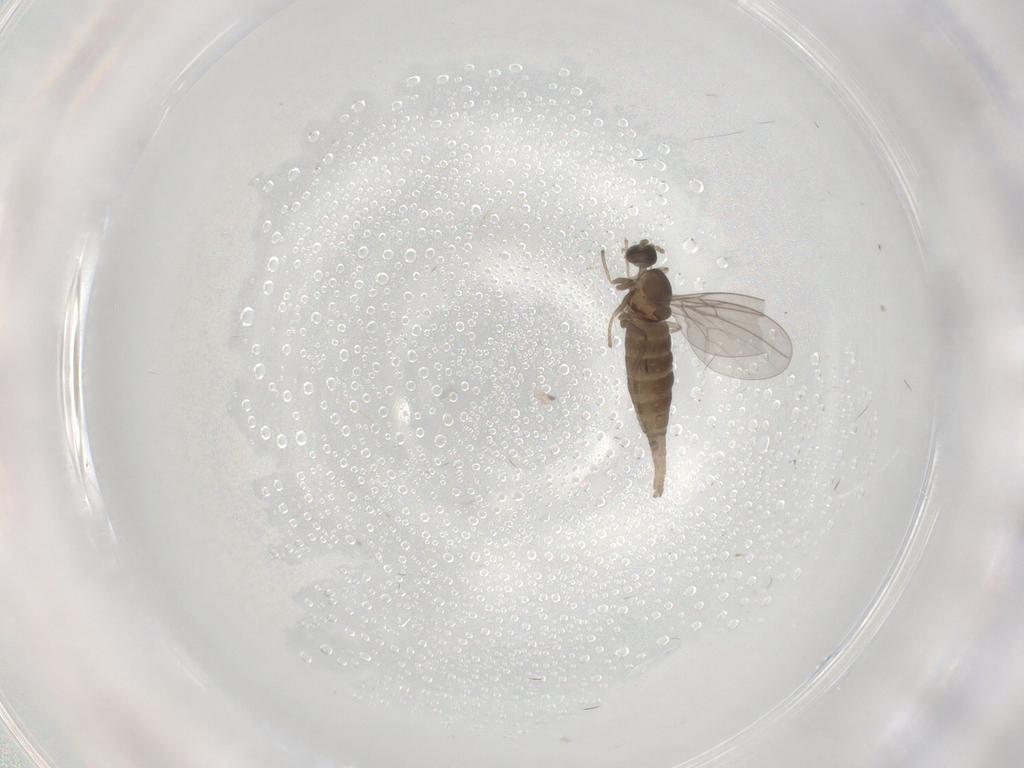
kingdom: Animalia
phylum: Arthropoda
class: Insecta
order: Diptera
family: Cecidomyiidae
